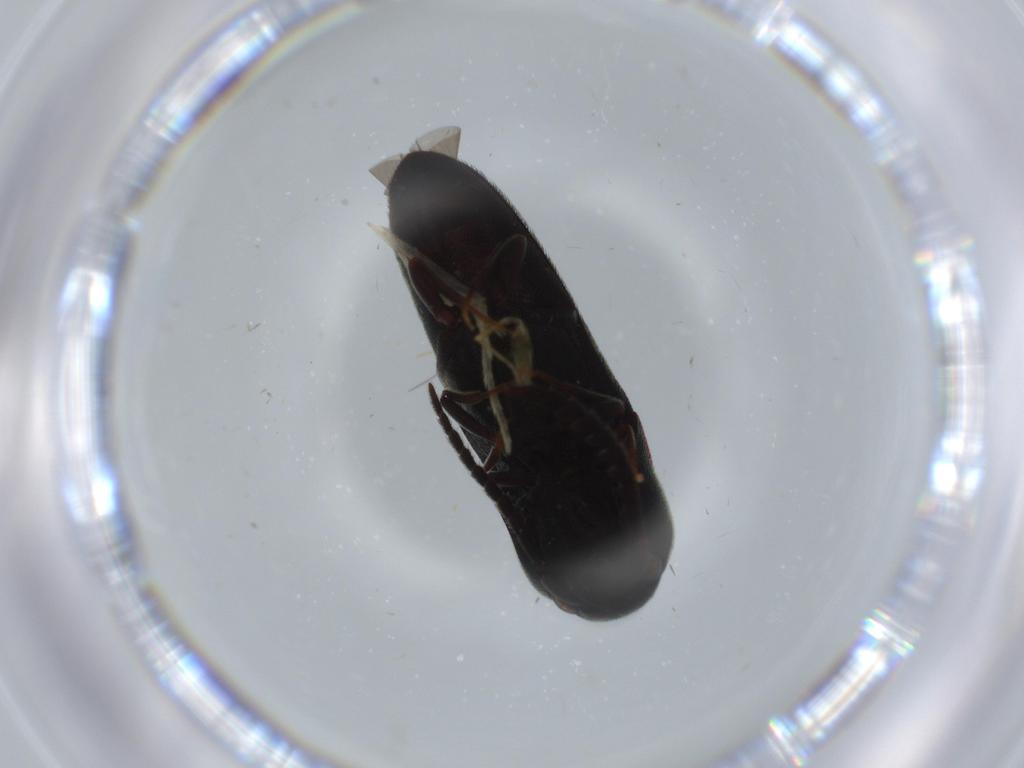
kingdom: Animalia
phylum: Arthropoda
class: Insecta
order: Coleoptera
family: Eucnemidae
